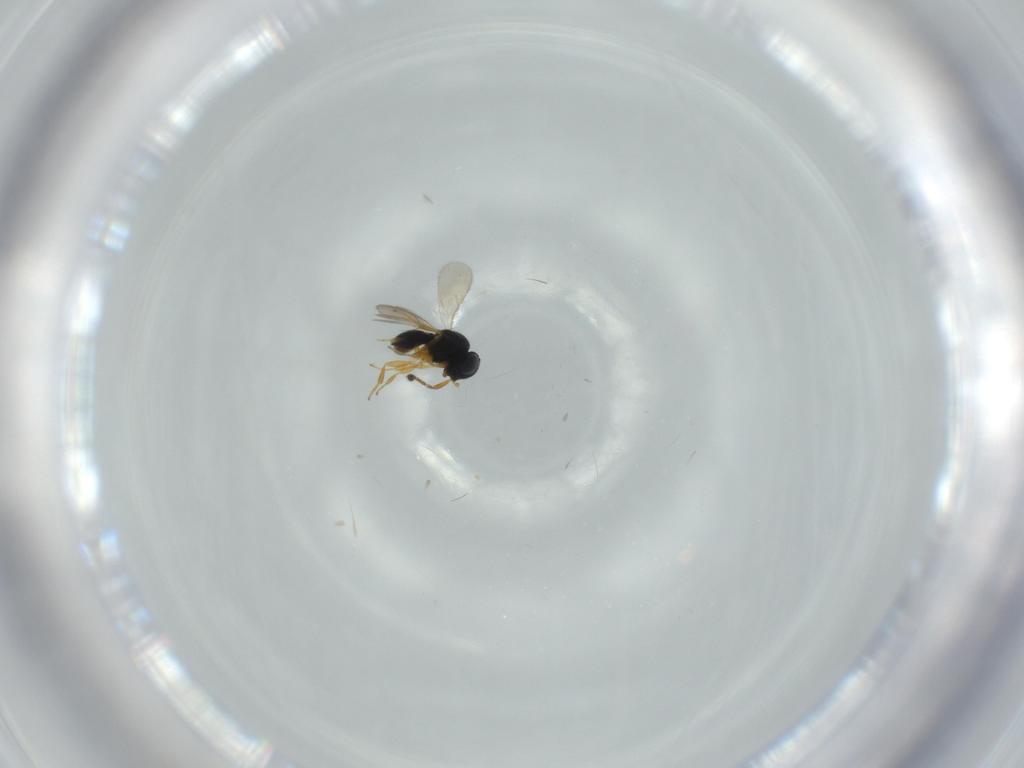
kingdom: Animalia
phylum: Arthropoda
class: Insecta
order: Hymenoptera
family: Scelionidae
